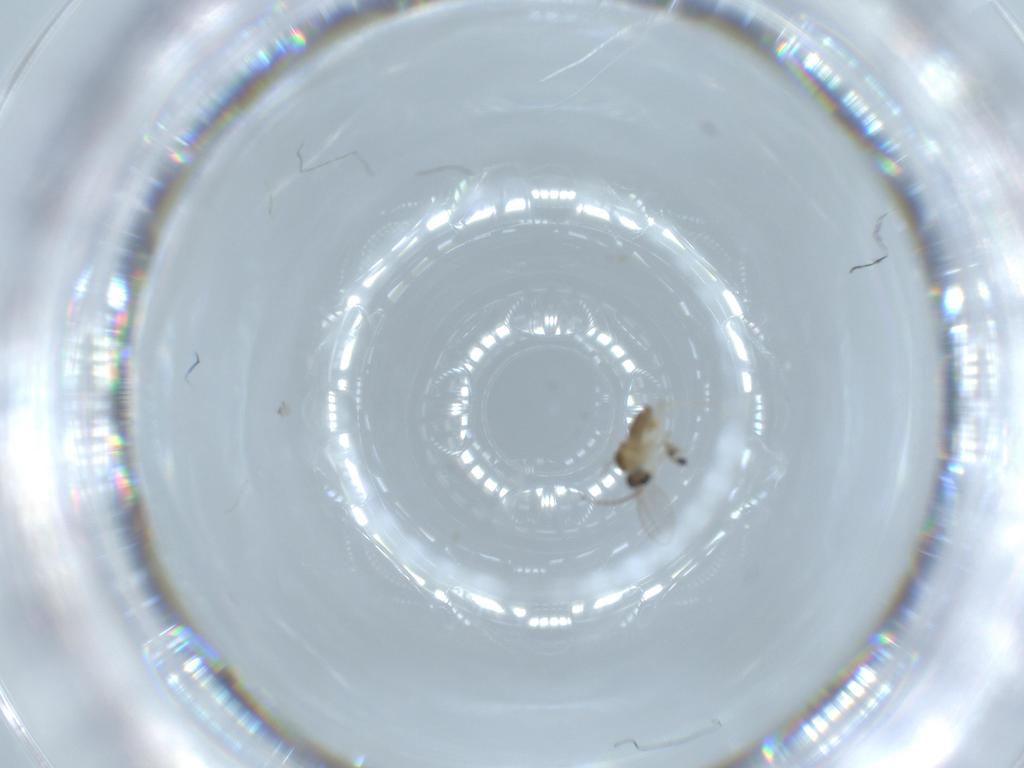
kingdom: Animalia
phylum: Arthropoda
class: Insecta
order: Diptera
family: Cecidomyiidae
